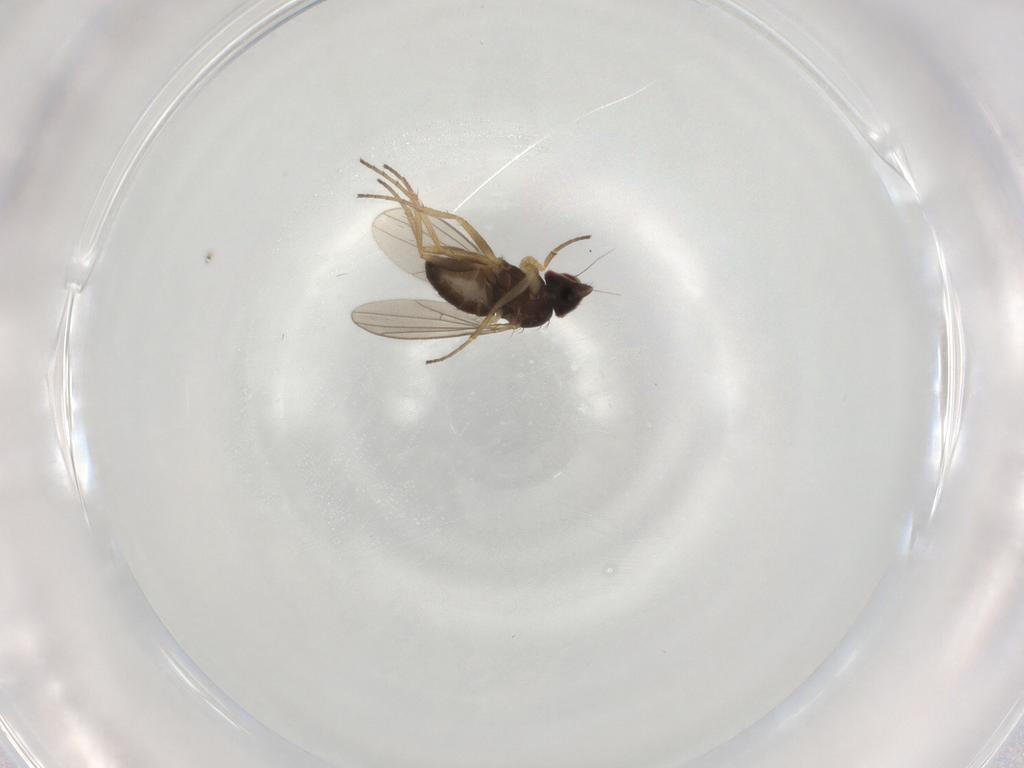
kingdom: Animalia
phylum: Arthropoda
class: Insecta
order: Diptera
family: Dolichopodidae
